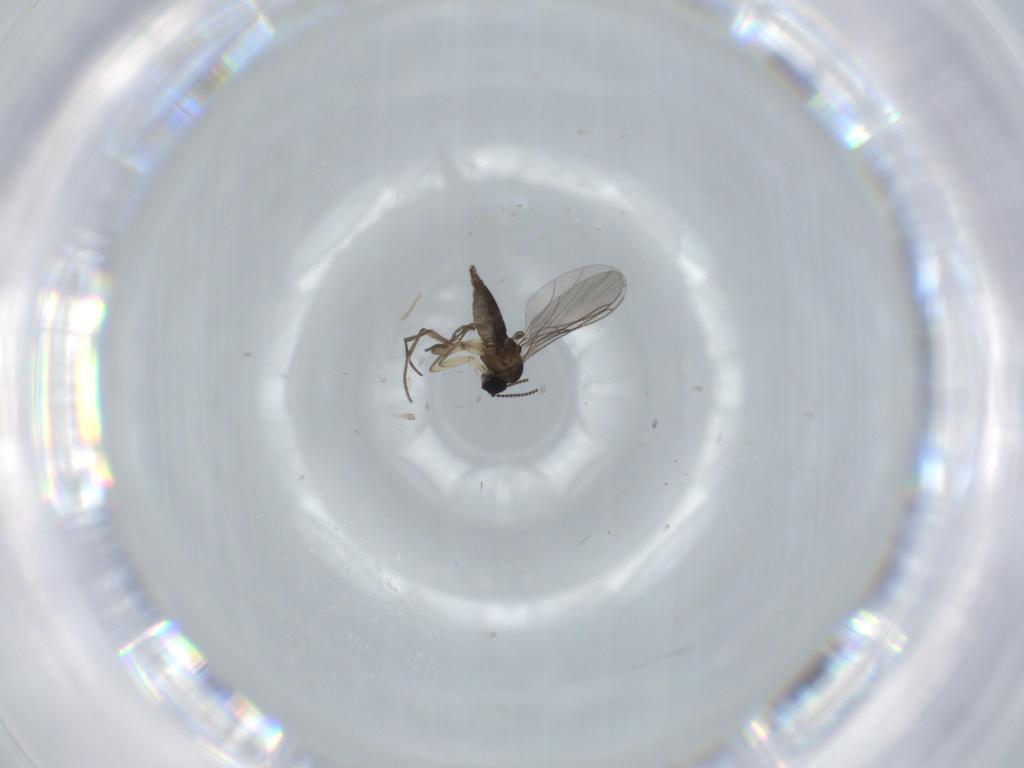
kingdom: Animalia
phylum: Arthropoda
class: Insecta
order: Diptera
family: Sciaridae
